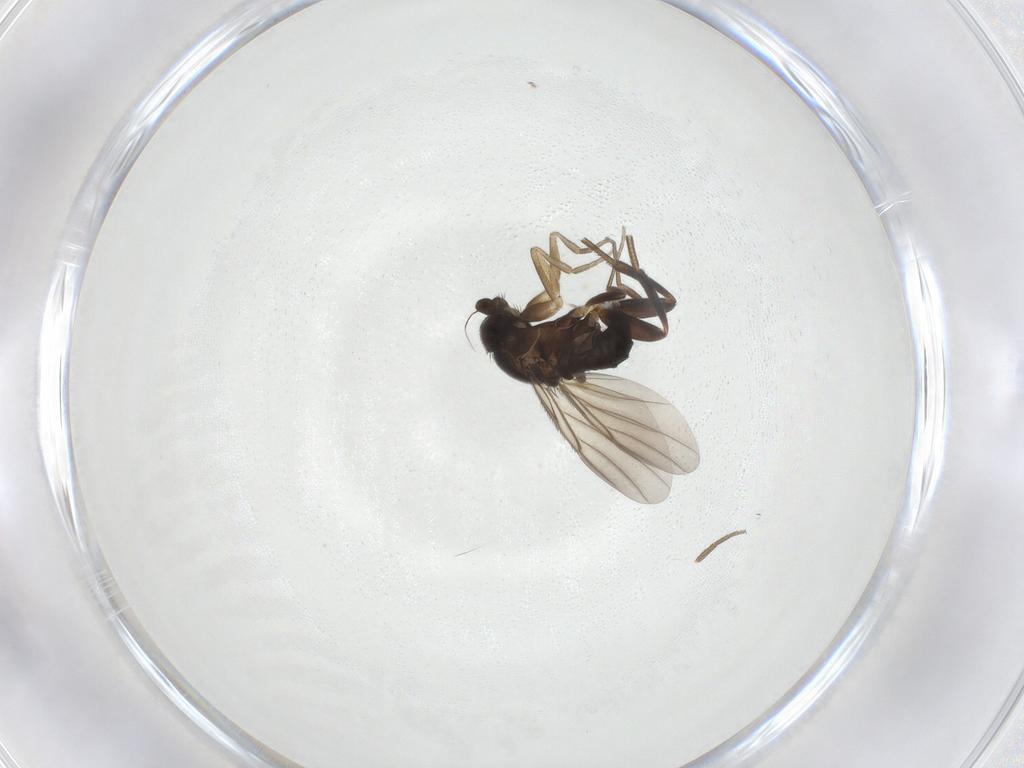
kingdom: Animalia
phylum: Arthropoda
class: Insecta
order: Diptera
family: Phoridae
